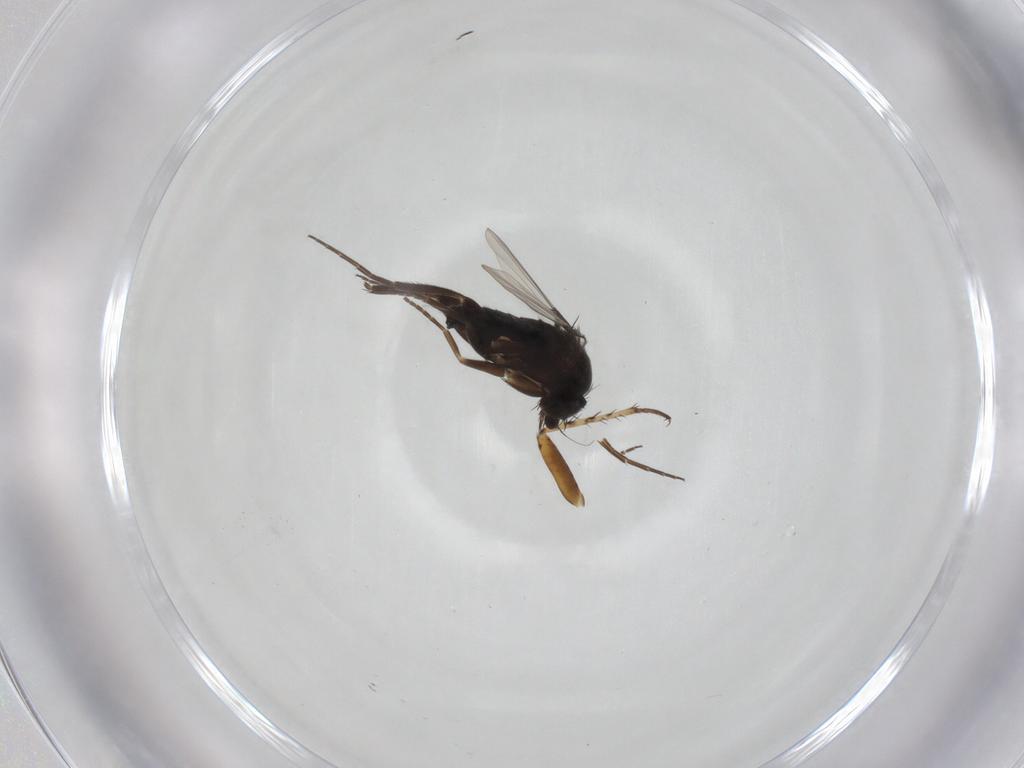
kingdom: Animalia
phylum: Arthropoda
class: Insecta
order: Diptera
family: Phoridae
